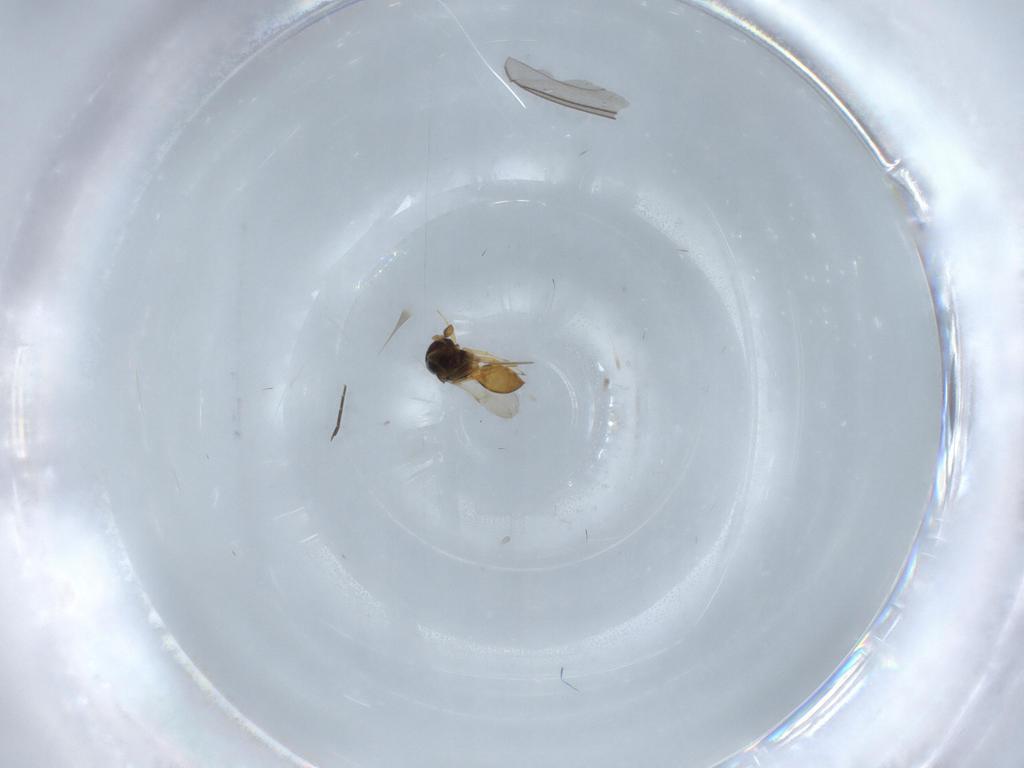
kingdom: Animalia
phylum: Arthropoda
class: Insecta
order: Hymenoptera
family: Scelionidae
